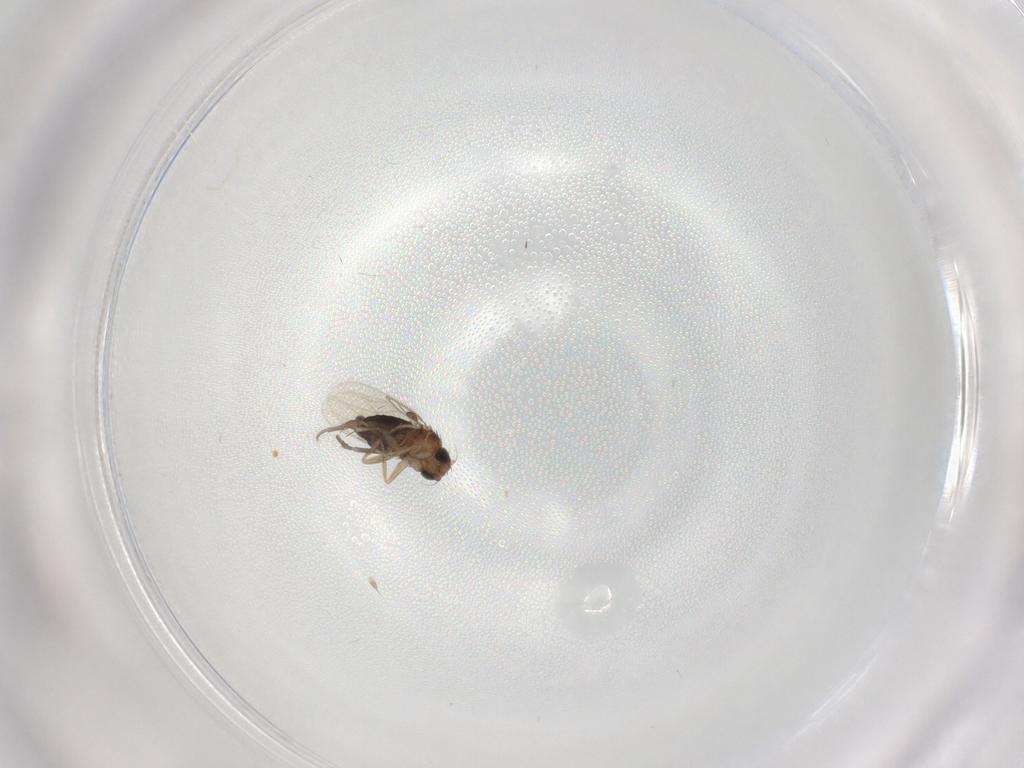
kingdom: Animalia
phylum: Arthropoda
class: Insecta
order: Diptera
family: Phoridae
